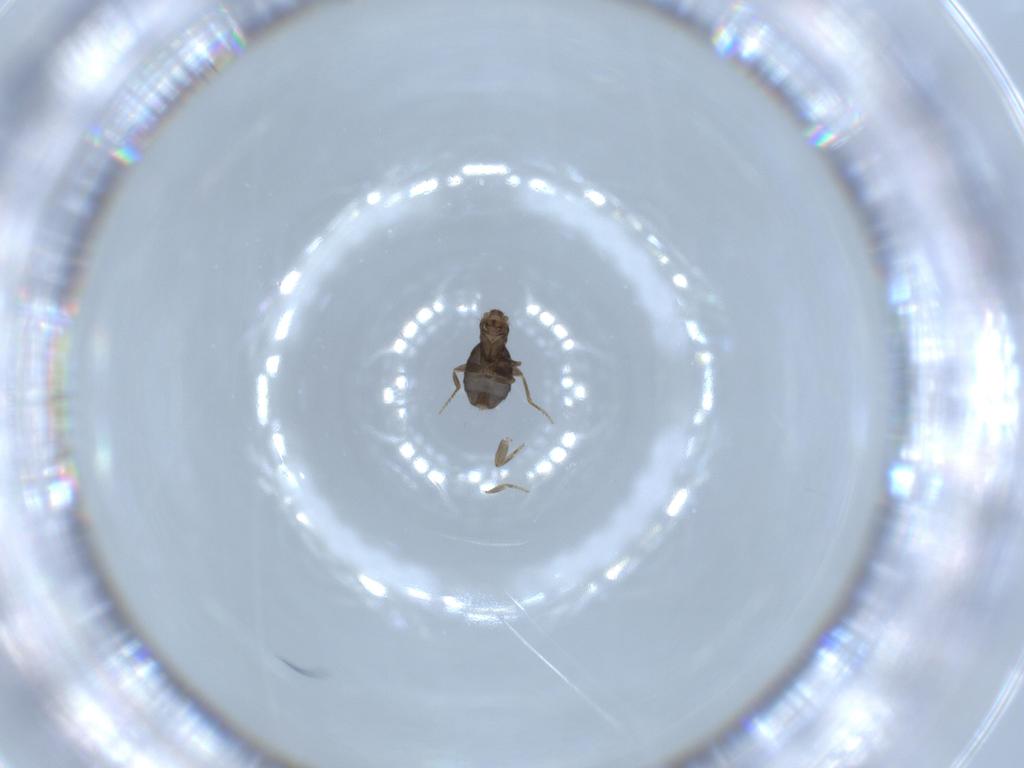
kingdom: Animalia
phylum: Arthropoda
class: Insecta
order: Diptera
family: Phoridae
